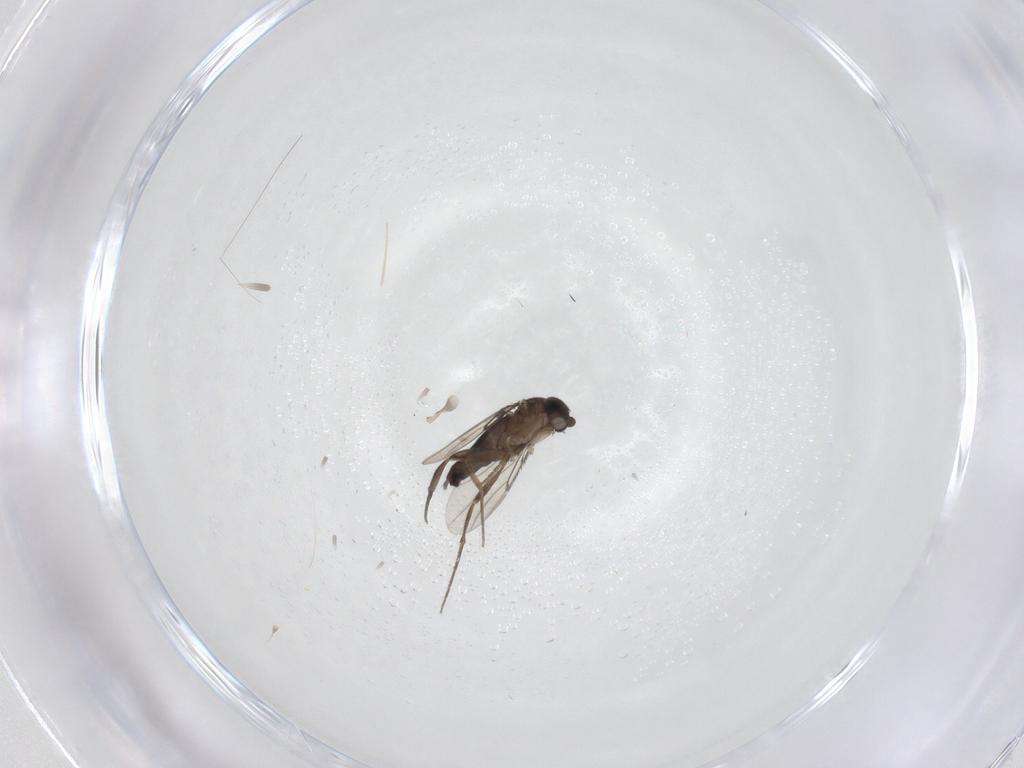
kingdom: Animalia
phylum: Arthropoda
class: Insecta
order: Diptera
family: Phoridae
